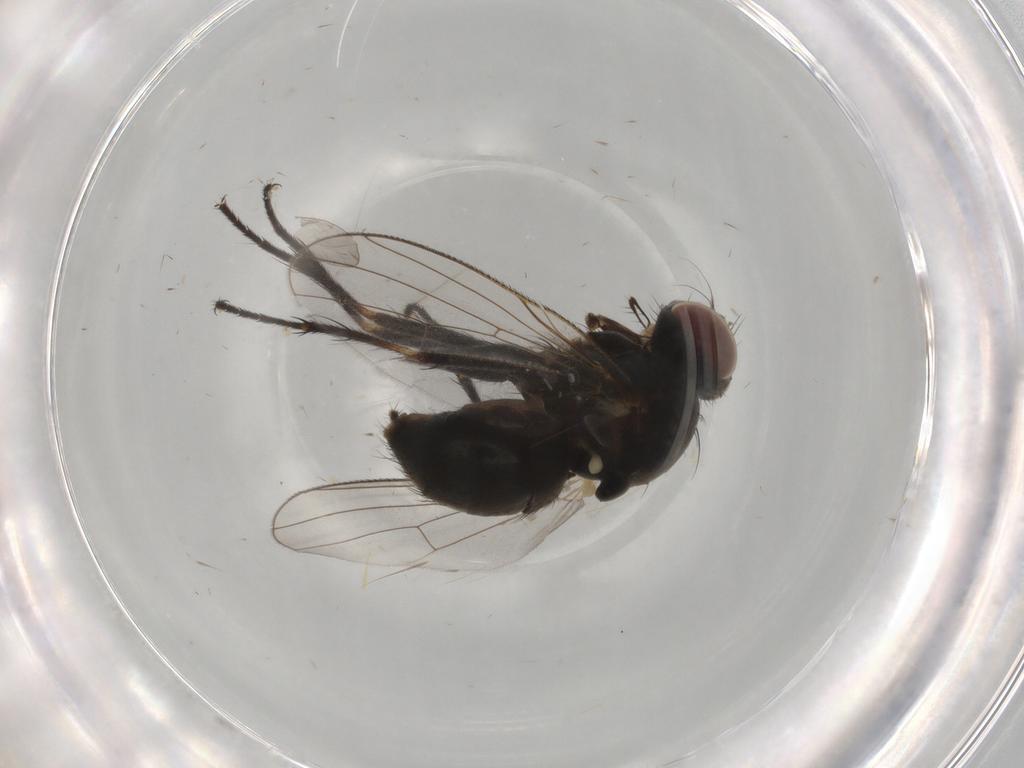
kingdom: Animalia
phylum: Arthropoda
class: Insecta
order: Diptera
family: Muscidae
